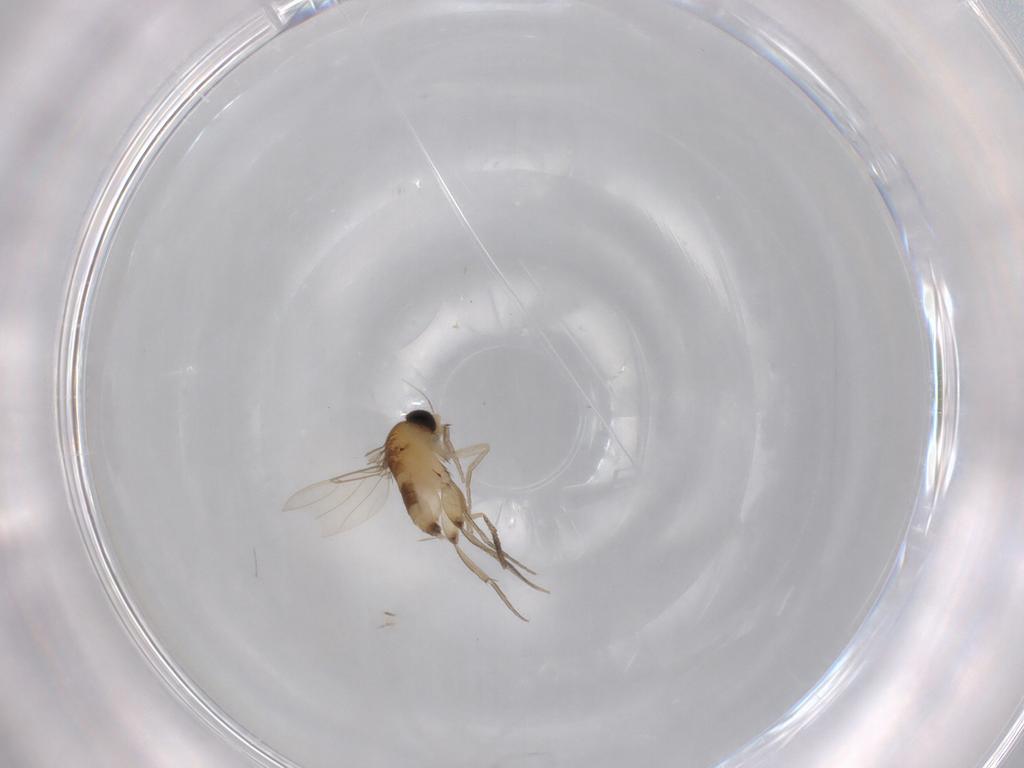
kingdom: Animalia
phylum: Arthropoda
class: Insecta
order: Diptera
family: Phoridae
